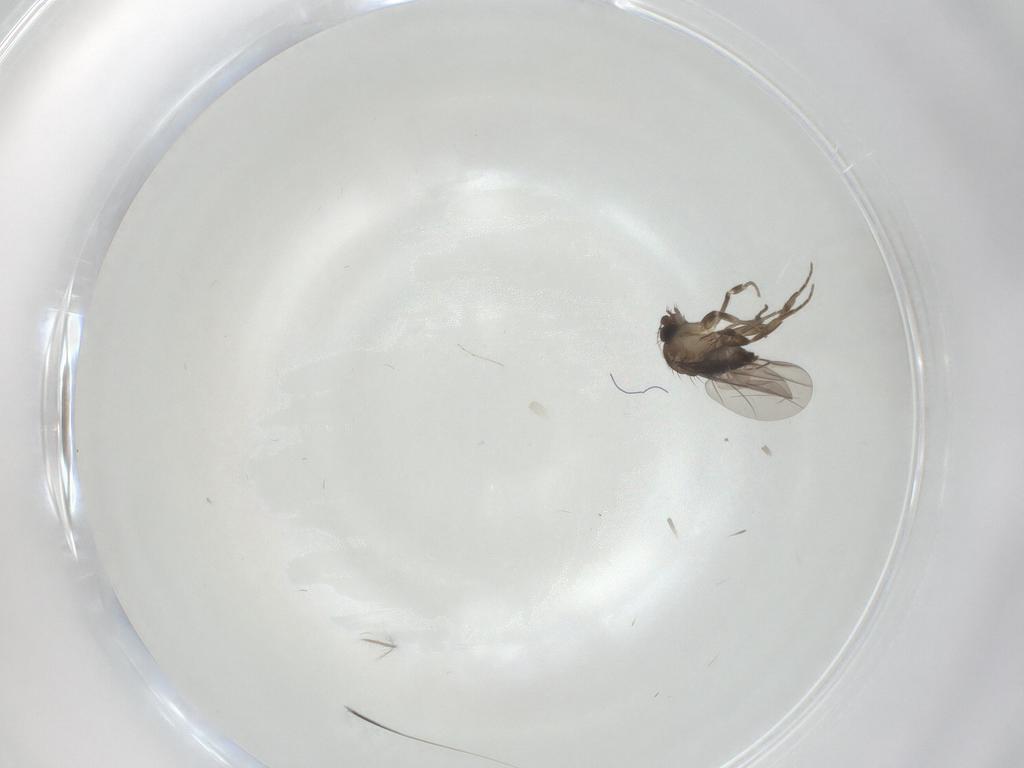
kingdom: Animalia
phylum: Arthropoda
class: Insecta
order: Diptera
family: Phoridae
